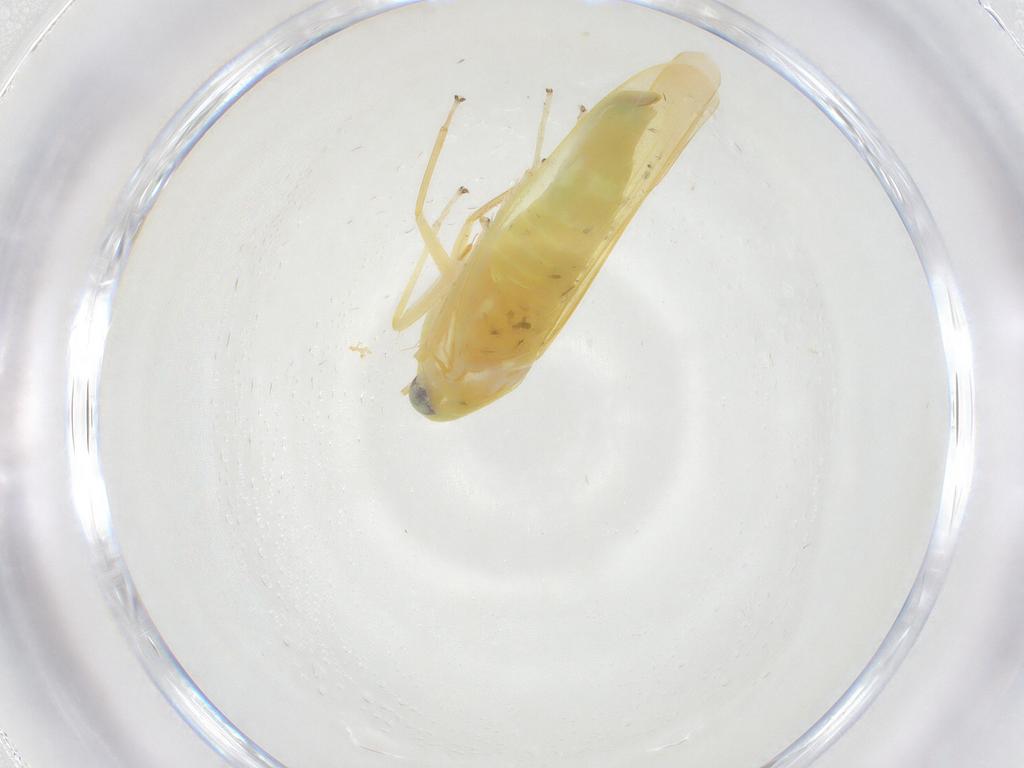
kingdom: Animalia
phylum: Arthropoda
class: Insecta
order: Hemiptera
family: Cicadellidae
